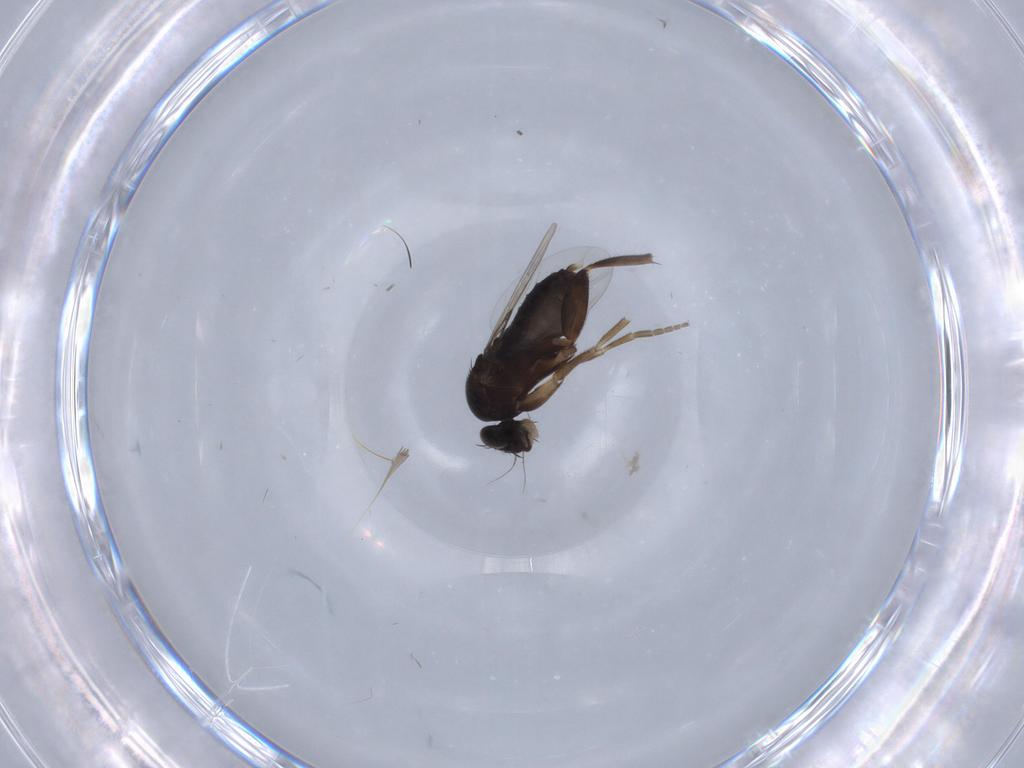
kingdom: Animalia
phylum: Arthropoda
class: Insecta
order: Diptera
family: Phoridae
